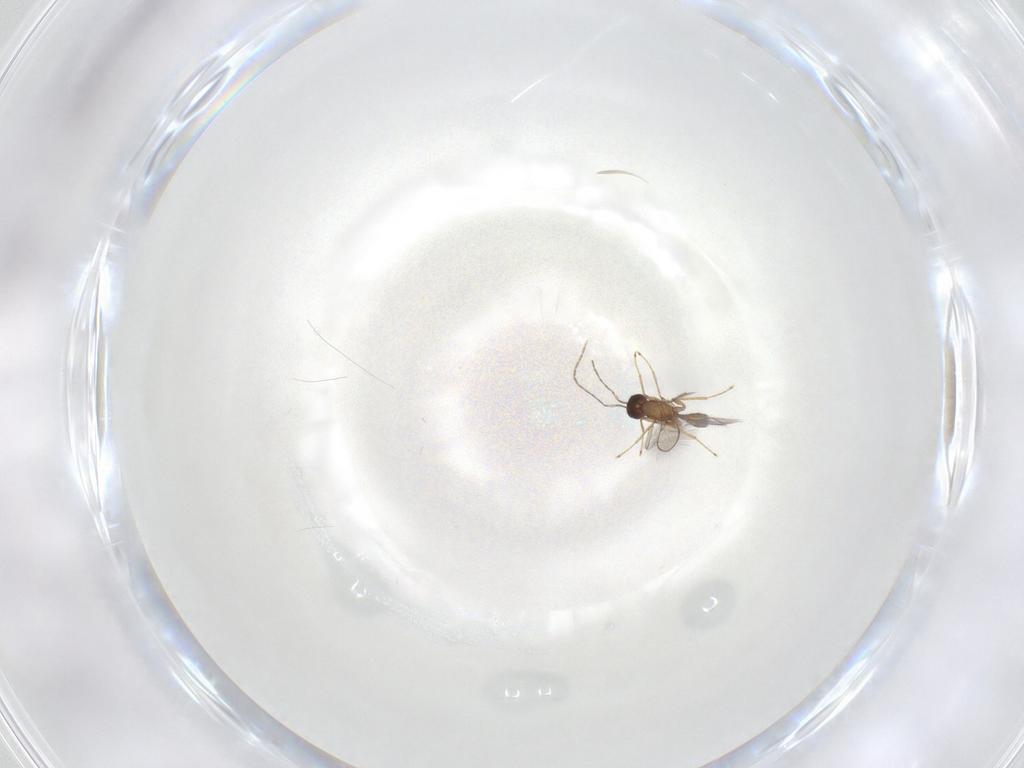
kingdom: Animalia
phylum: Arthropoda
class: Insecta
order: Hymenoptera
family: Mymaridae
